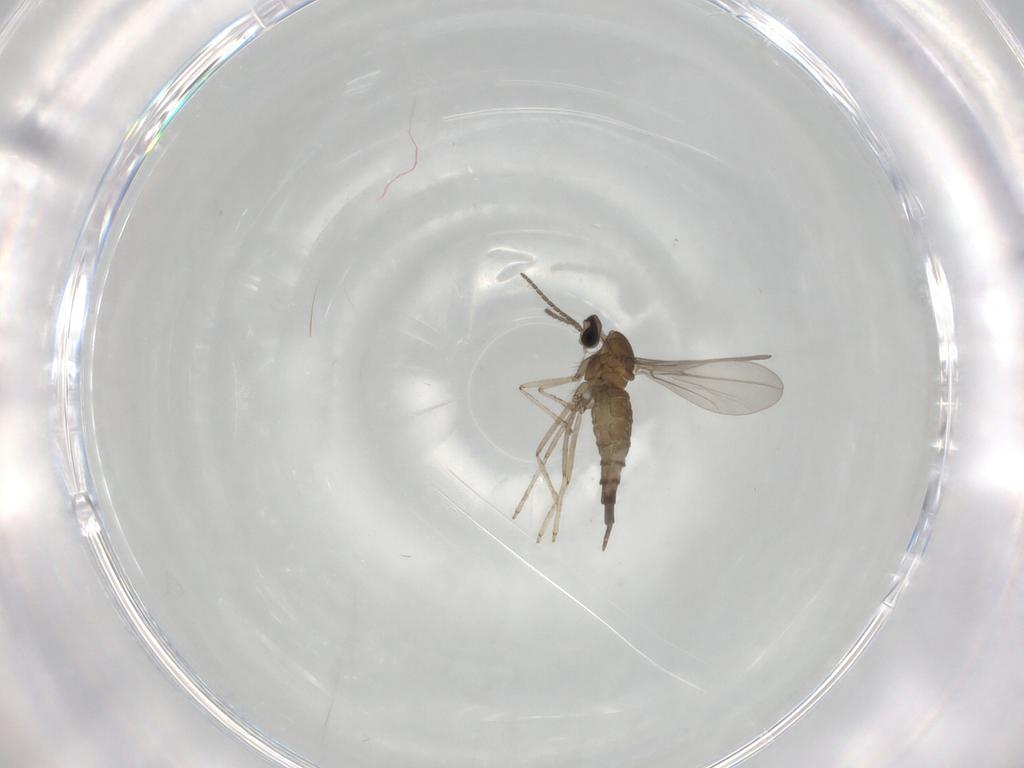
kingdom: Animalia
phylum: Arthropoda
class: Insecta
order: Diptera
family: Cecidomyiidae
